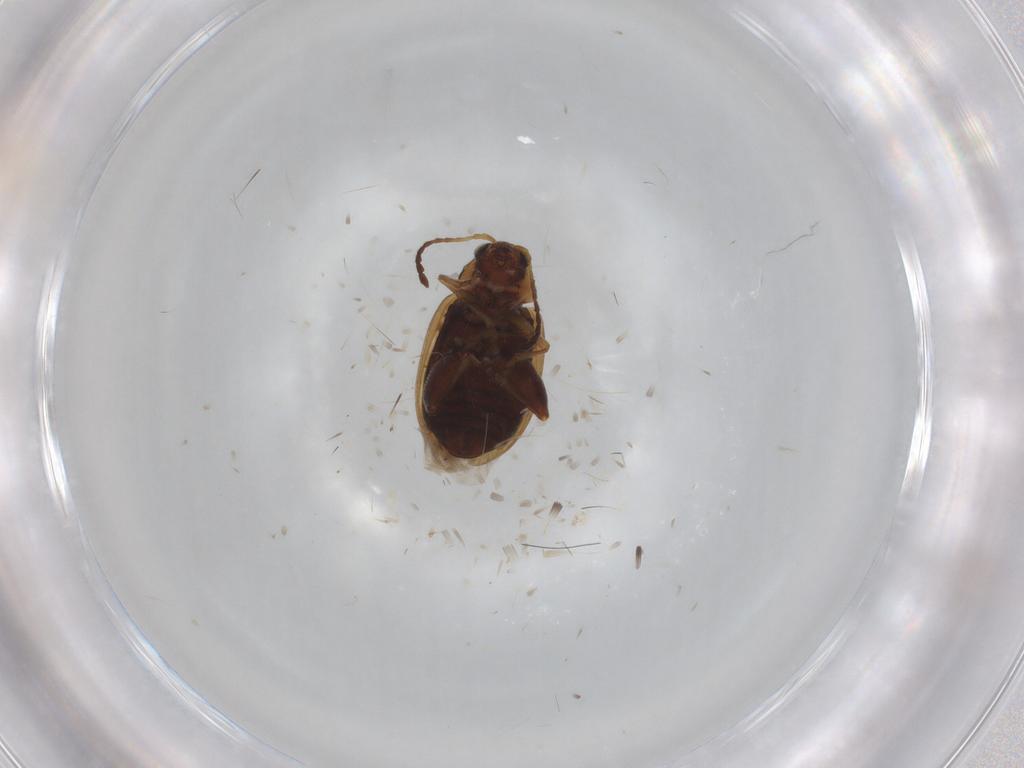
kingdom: Animalia
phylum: Arthropoda
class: Insecta
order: Coleoptera
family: Chrysomelidae
